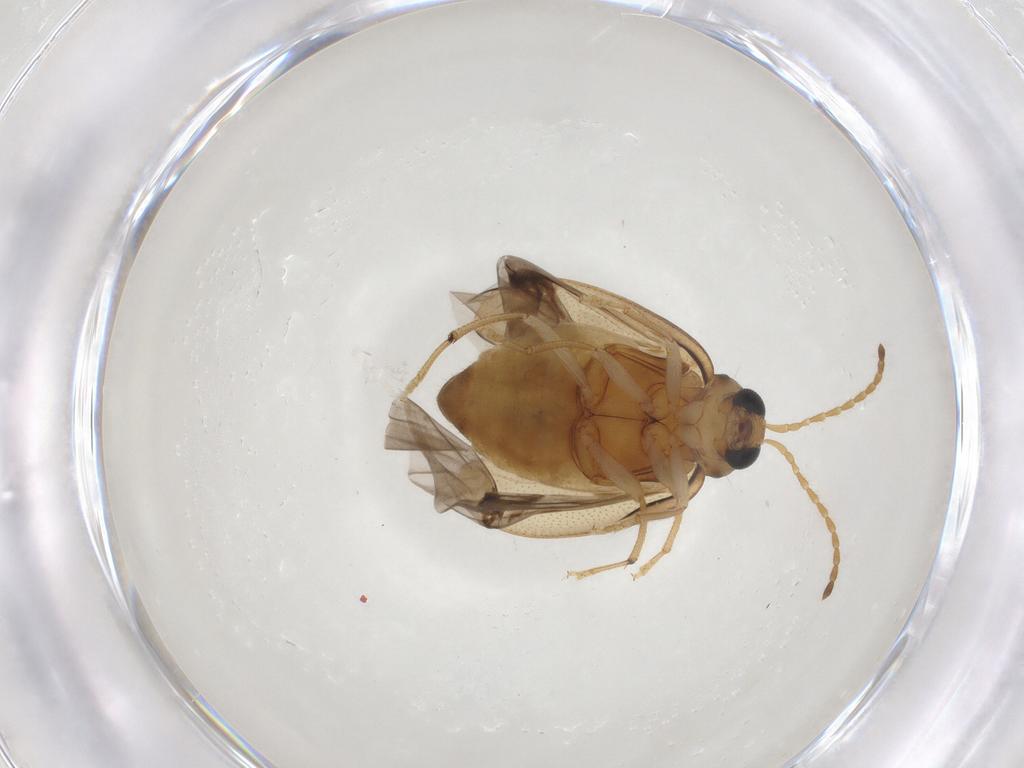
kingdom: Animalia
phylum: Arthropoda
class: Insecta
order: Coleoptera
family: Chrysomelidae
